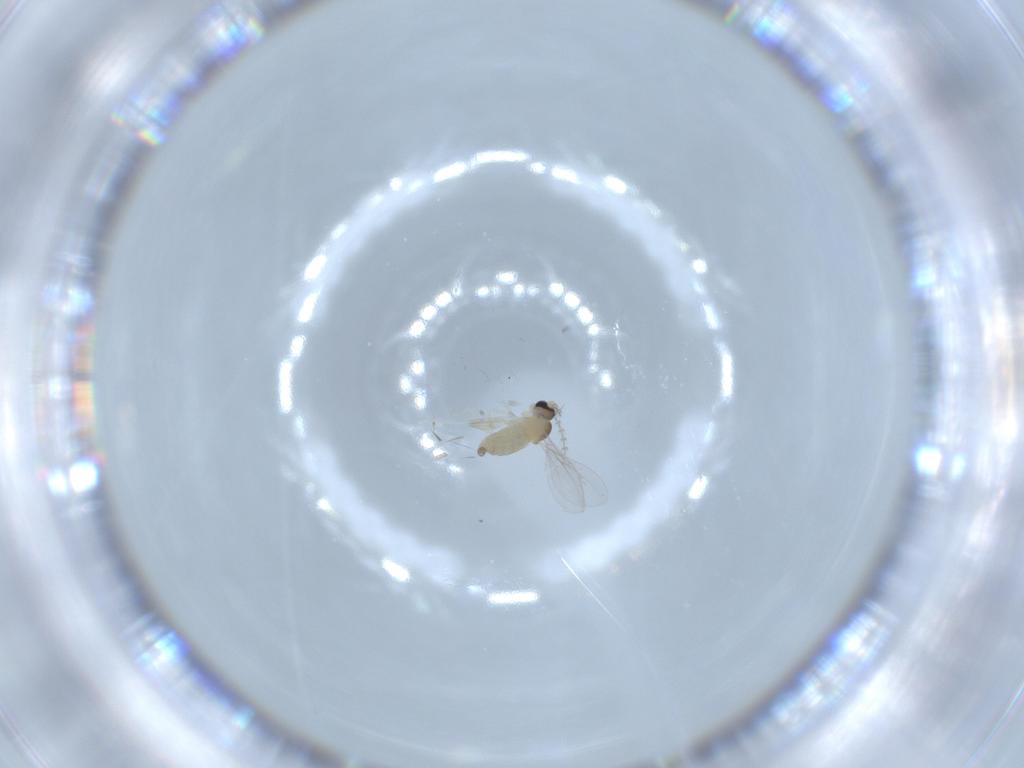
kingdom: Animalia
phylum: Arthropoda
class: Insecta
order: Diptera
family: Cecidomyiidae
